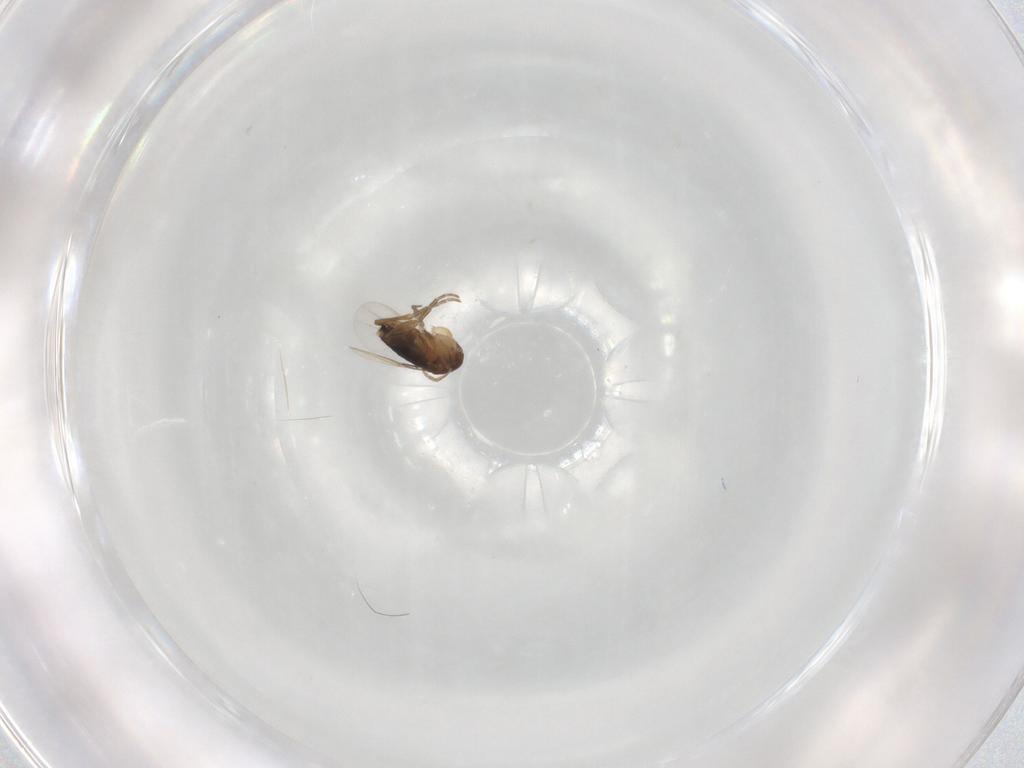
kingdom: Animalia
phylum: Arthropoda
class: Insecta
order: Diptera
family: Phoridae
